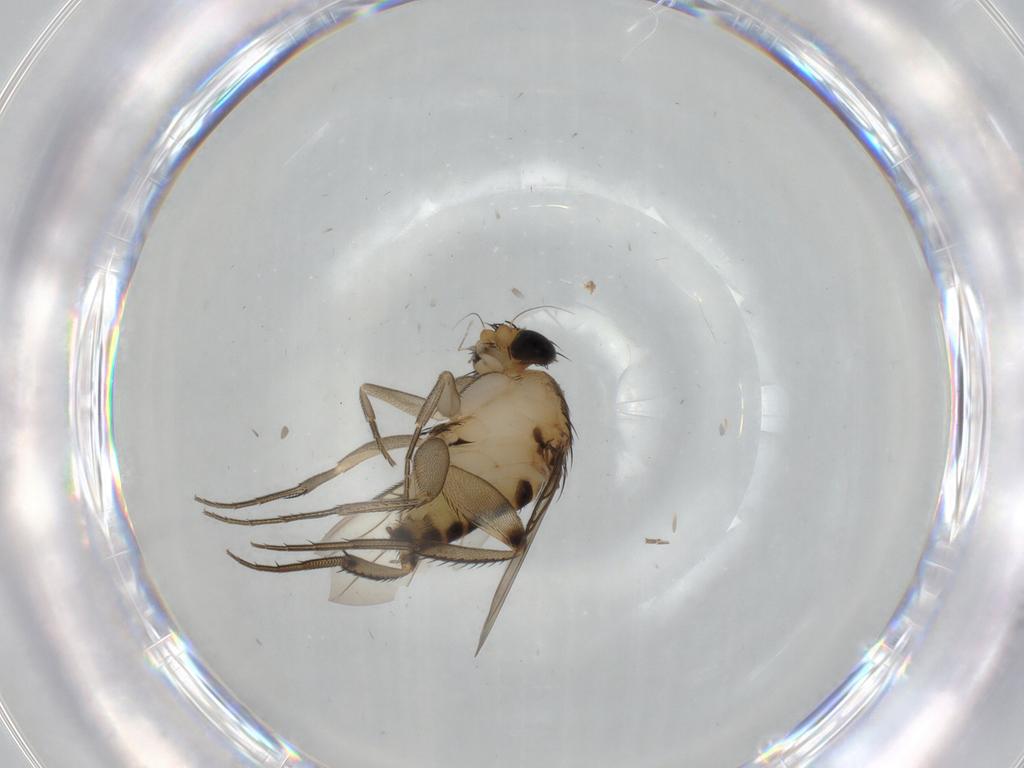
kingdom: Animalia
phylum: Arthropoda
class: Insecta
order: Diptera
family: Phoridae
